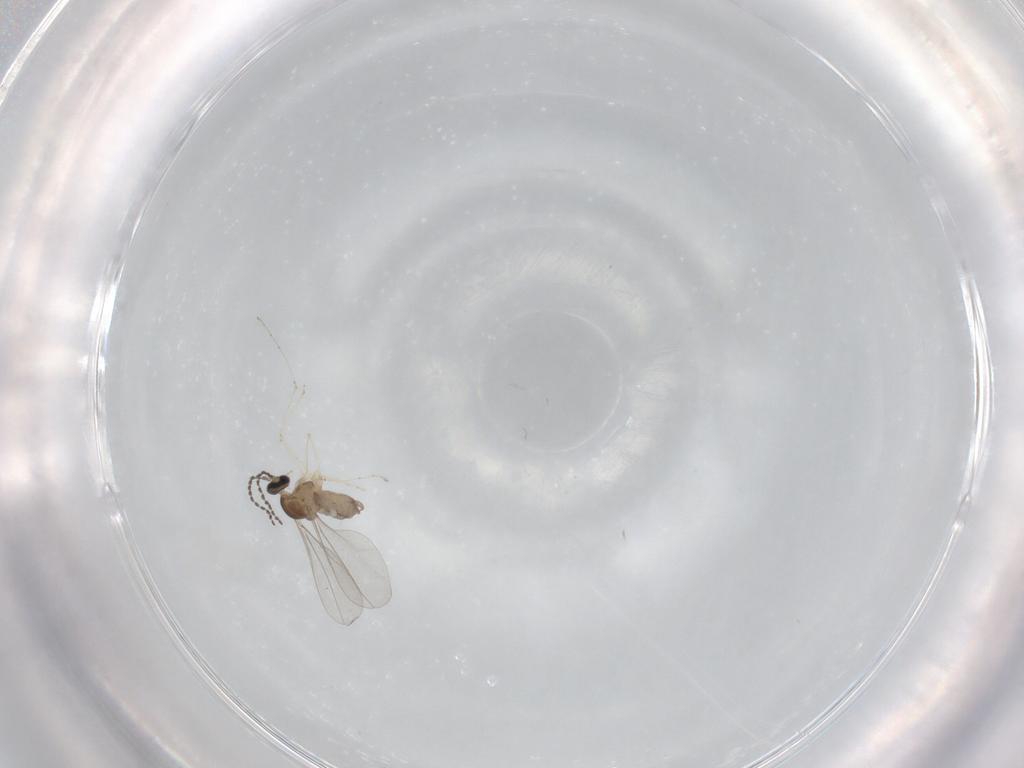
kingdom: Animalia
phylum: Arthropoda
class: Insecta
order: Diptera
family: Cecidomyiidae
